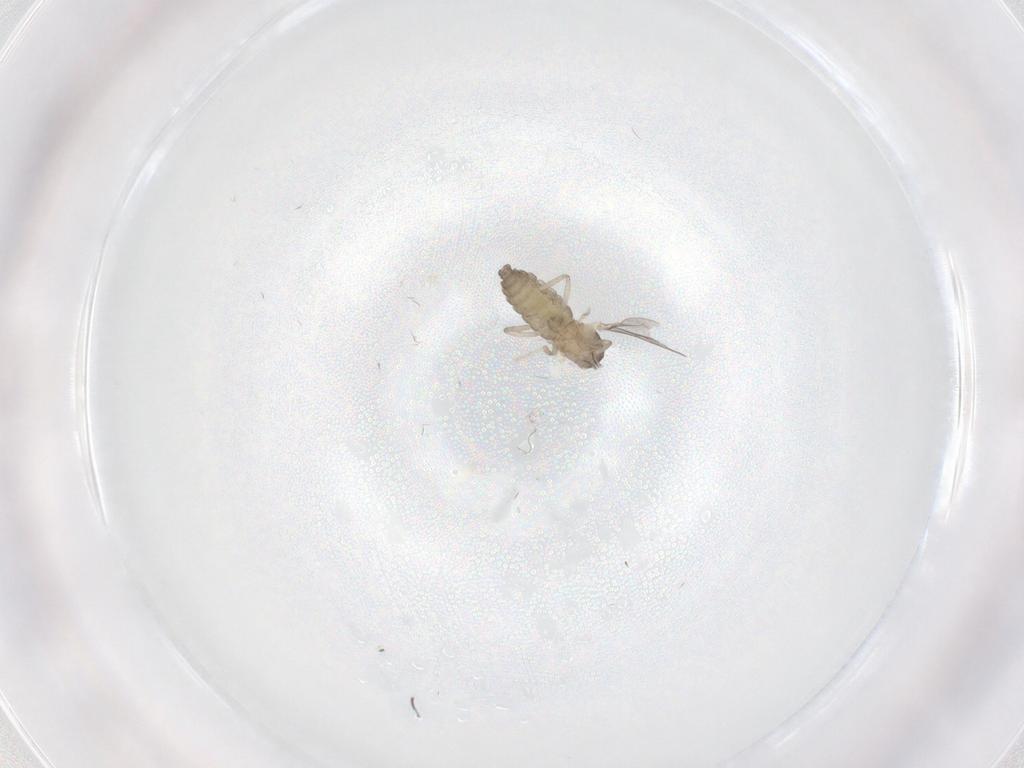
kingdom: Animalia
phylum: Arthropoda
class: Insecta
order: Diptera
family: Cecidomyiidae
